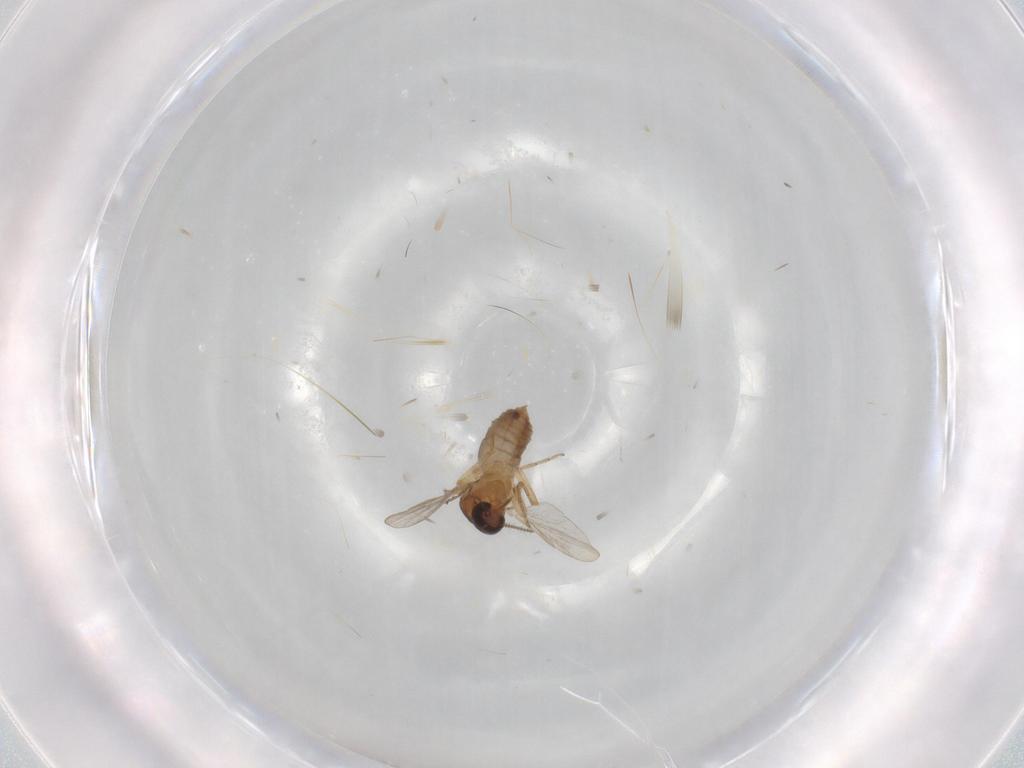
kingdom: Animalia
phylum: Arthropoda
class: Insecta
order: Diptera
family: Ceratopogonidae
